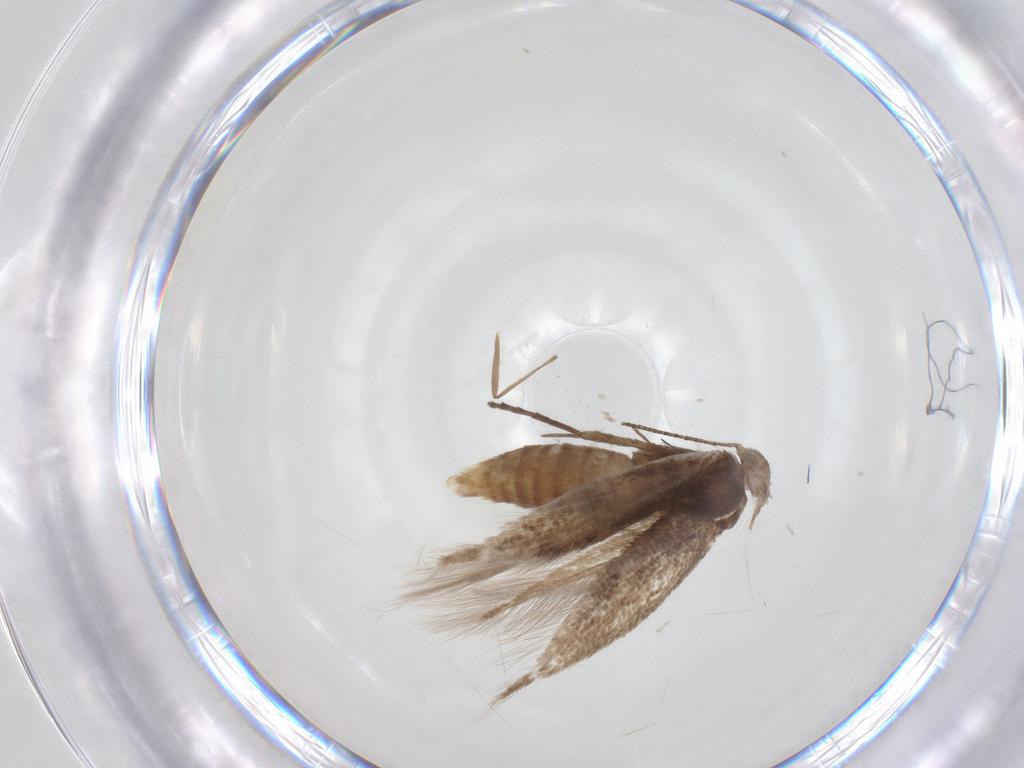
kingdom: Animalia
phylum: Arthropoda
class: Insecta
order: Lepidoptera
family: Bucculatricidae
